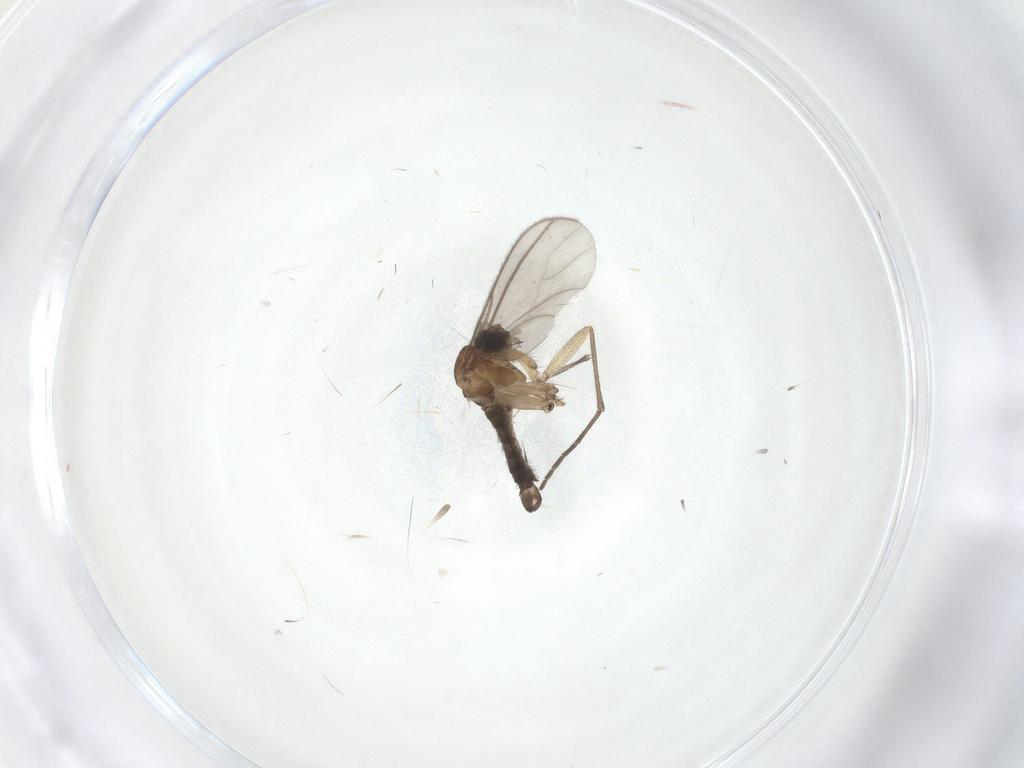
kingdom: Animalia
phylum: Arthropoda
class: Insecta
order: Diptera
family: Sciaridae
